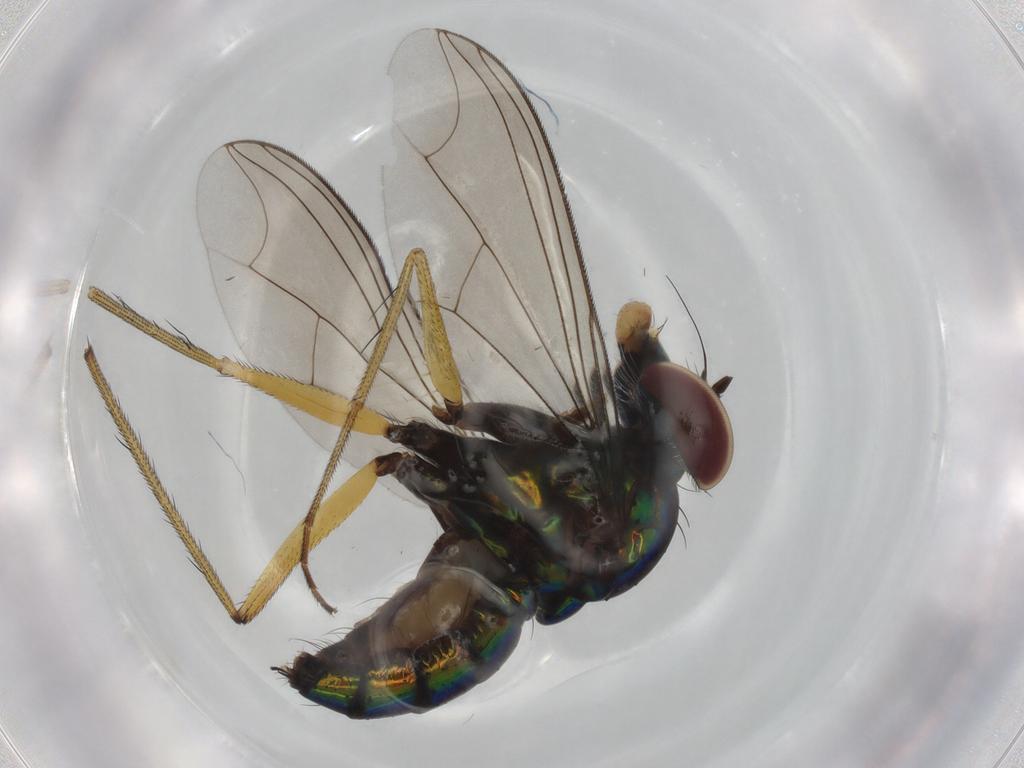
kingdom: Animalia
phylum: Arthropoda
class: Insecta
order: Diptera
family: Dolichopodidae
